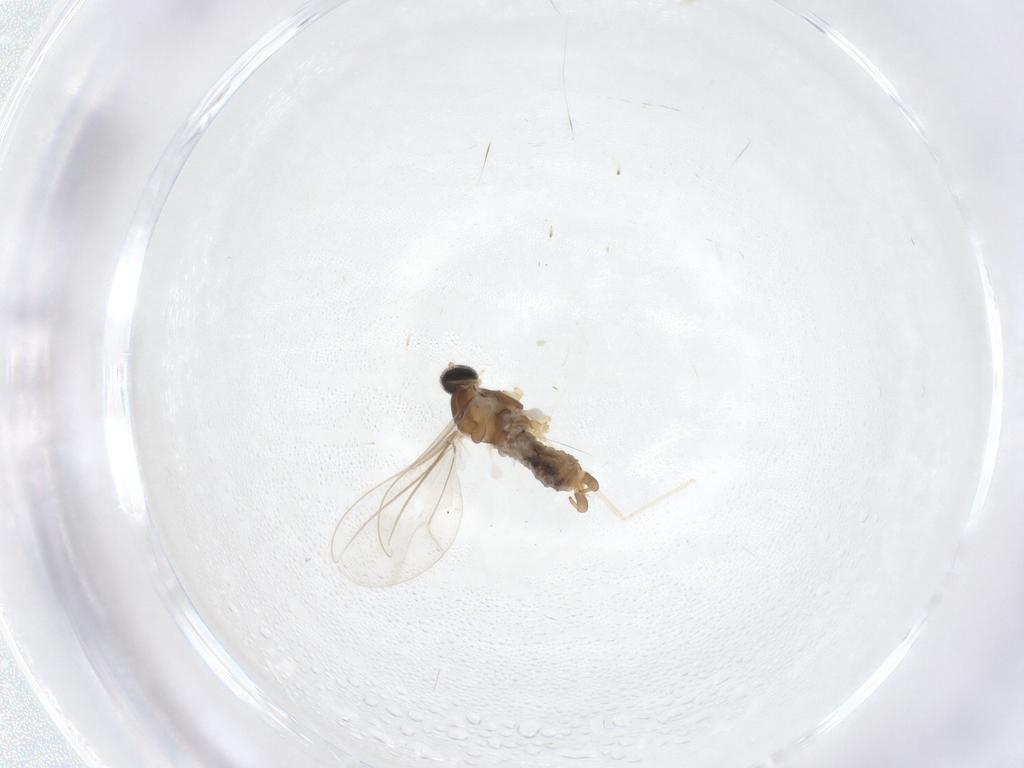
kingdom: Animalia
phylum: Arthropoda
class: Insecta
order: Diptera
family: Cecidomyiidae
